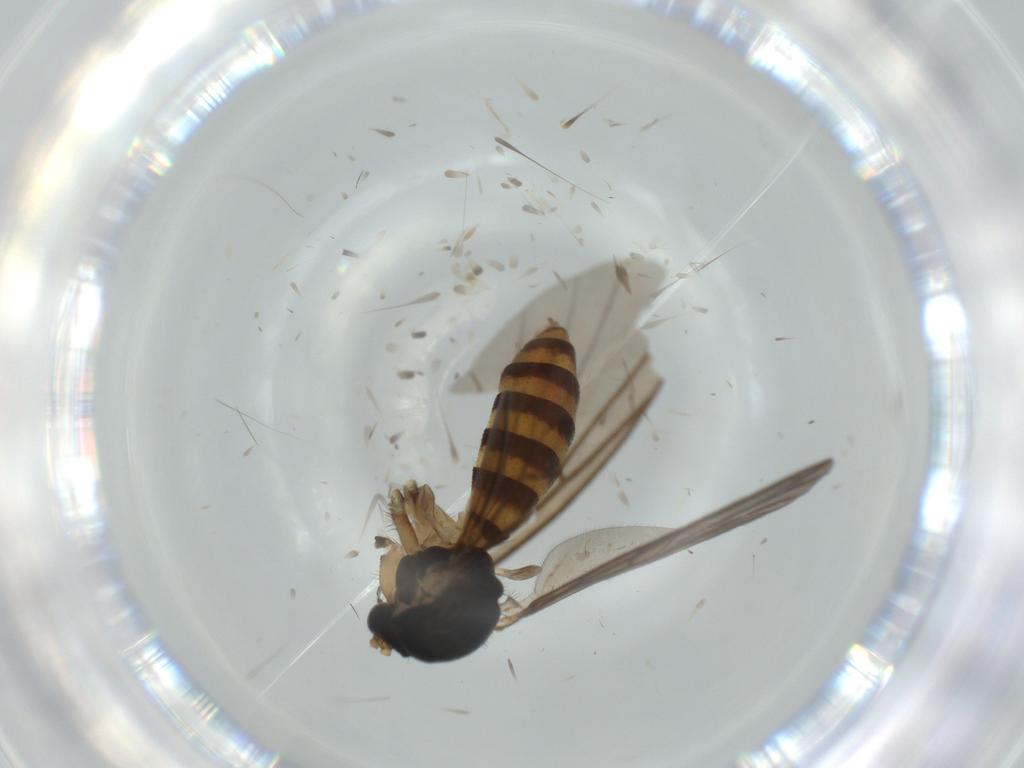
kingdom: Animalia
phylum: Arthropoda
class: Insecta
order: Diptera
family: Mycetophilidae
